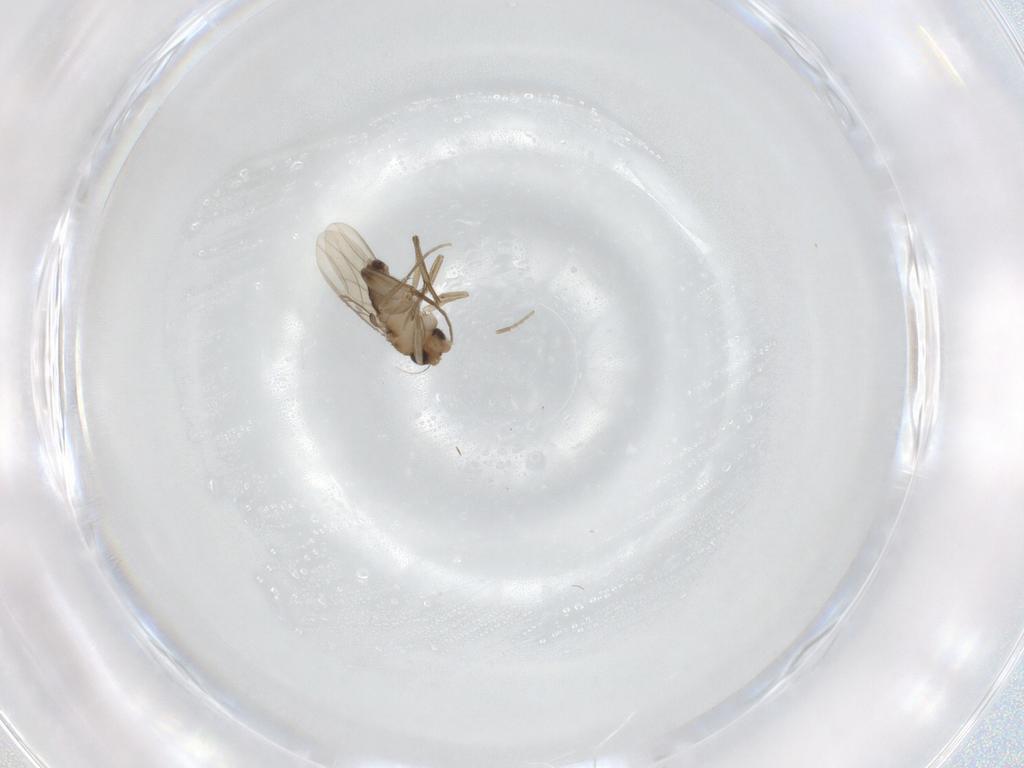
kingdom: Animalia
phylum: Arthropoda
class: Insecta
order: Diptera
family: Phoridae
